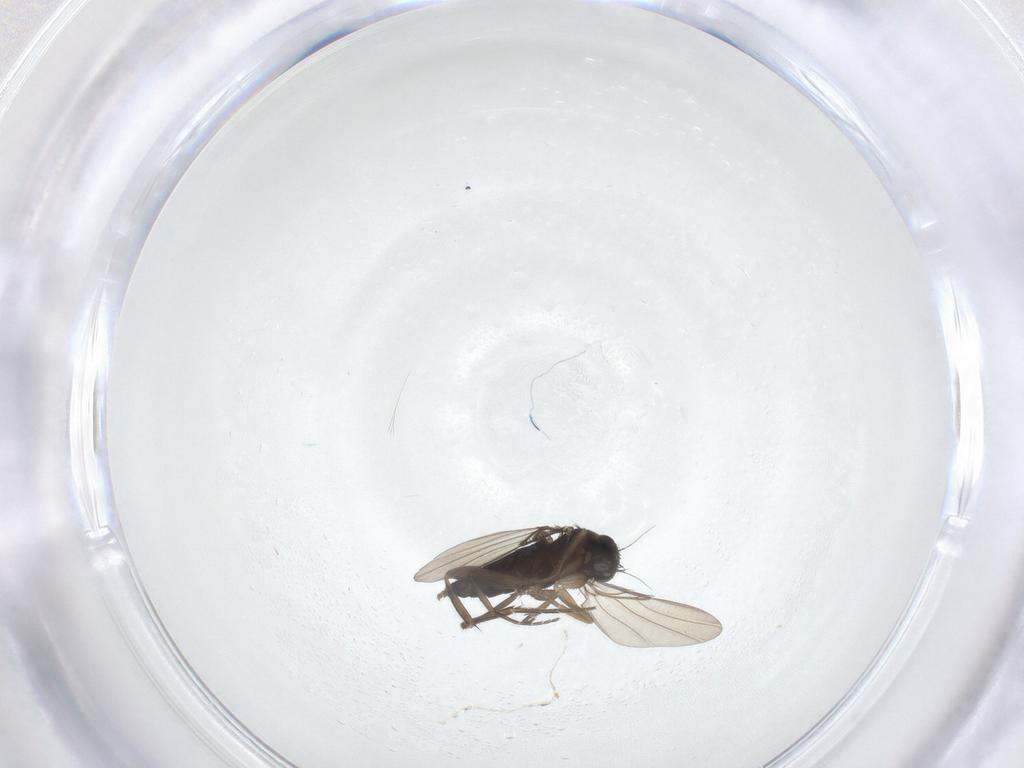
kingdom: Animalia
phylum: Arthropoda
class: Insecta
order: Diptera
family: Phoridae
